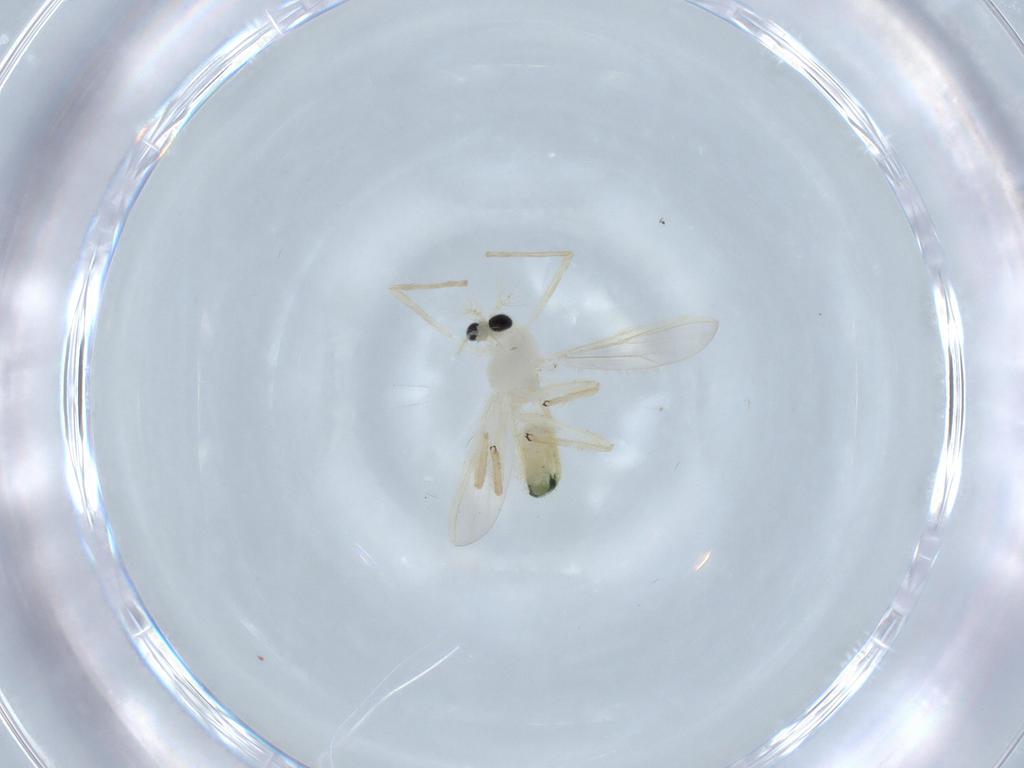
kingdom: Animalia
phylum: Arthropoda
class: Insecta
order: Diptera
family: Chironomidae
